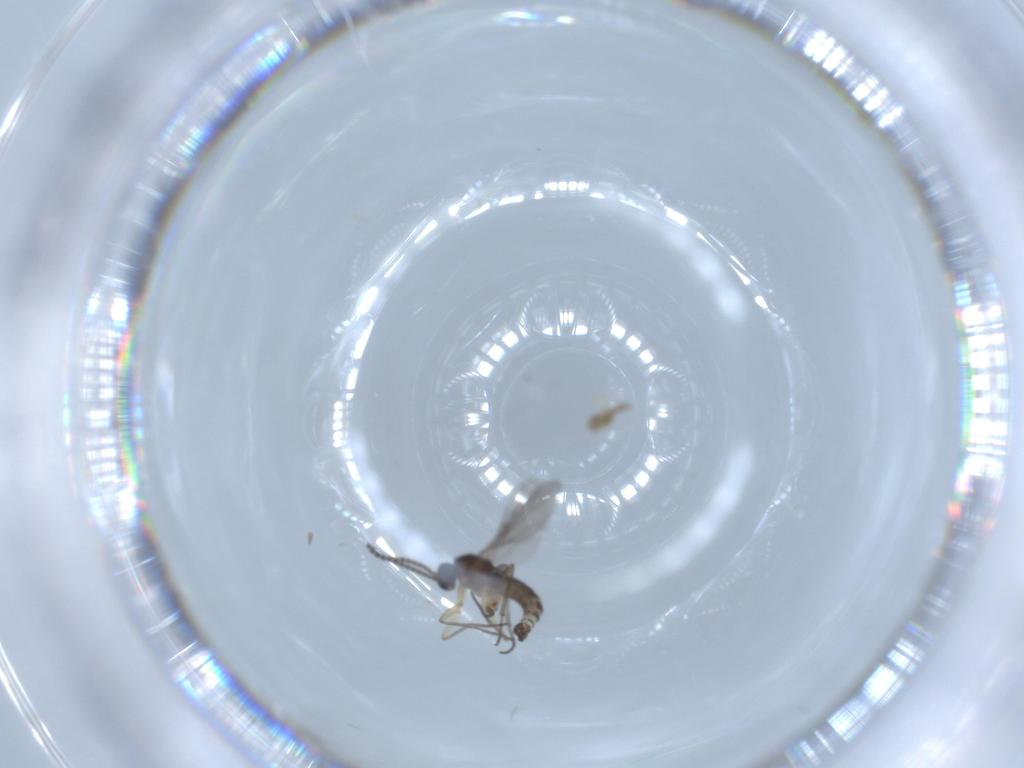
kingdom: Animalia
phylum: Arthropoda
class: Insecta
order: Diptera
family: Sciaridae
